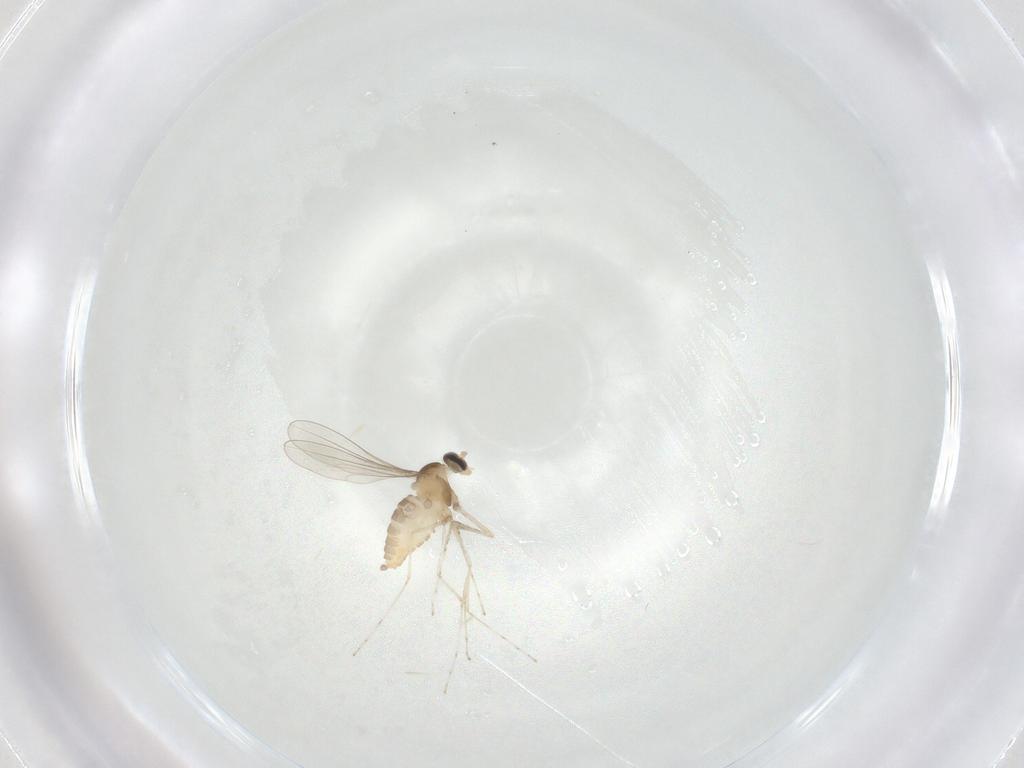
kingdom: Animalia
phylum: Arthropoda
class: Insecta
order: Diptera
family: Cecidomyiidae
